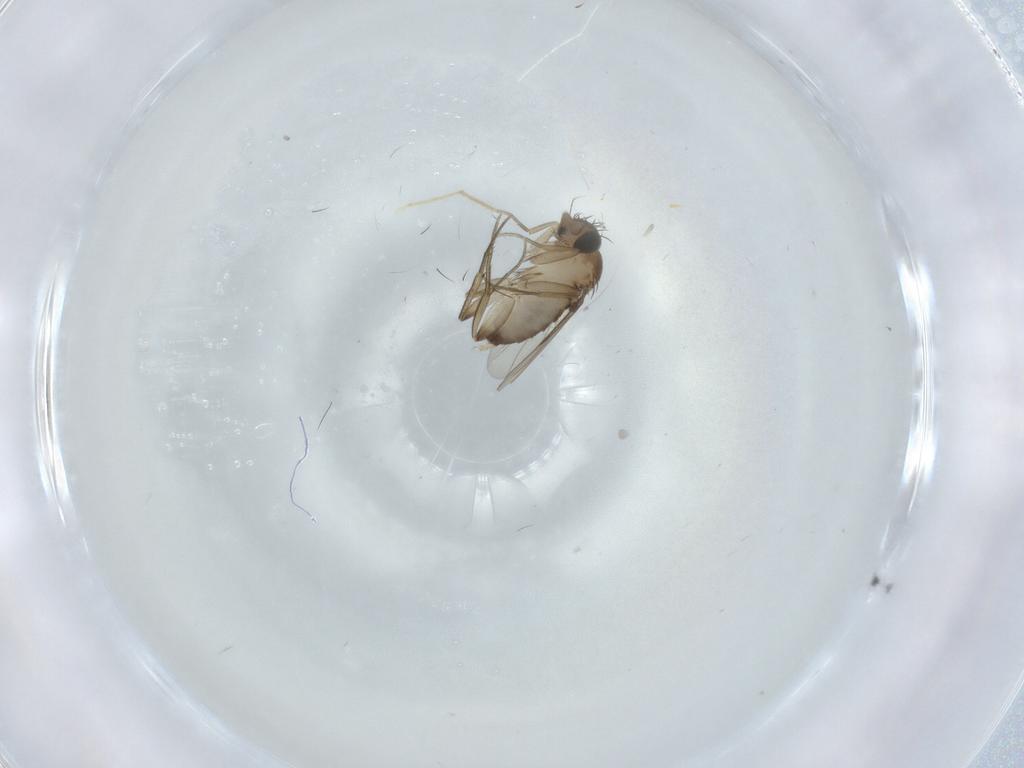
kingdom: Animalia
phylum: Arthropoda
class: Insecta
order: Diptera
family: Limoniidae
